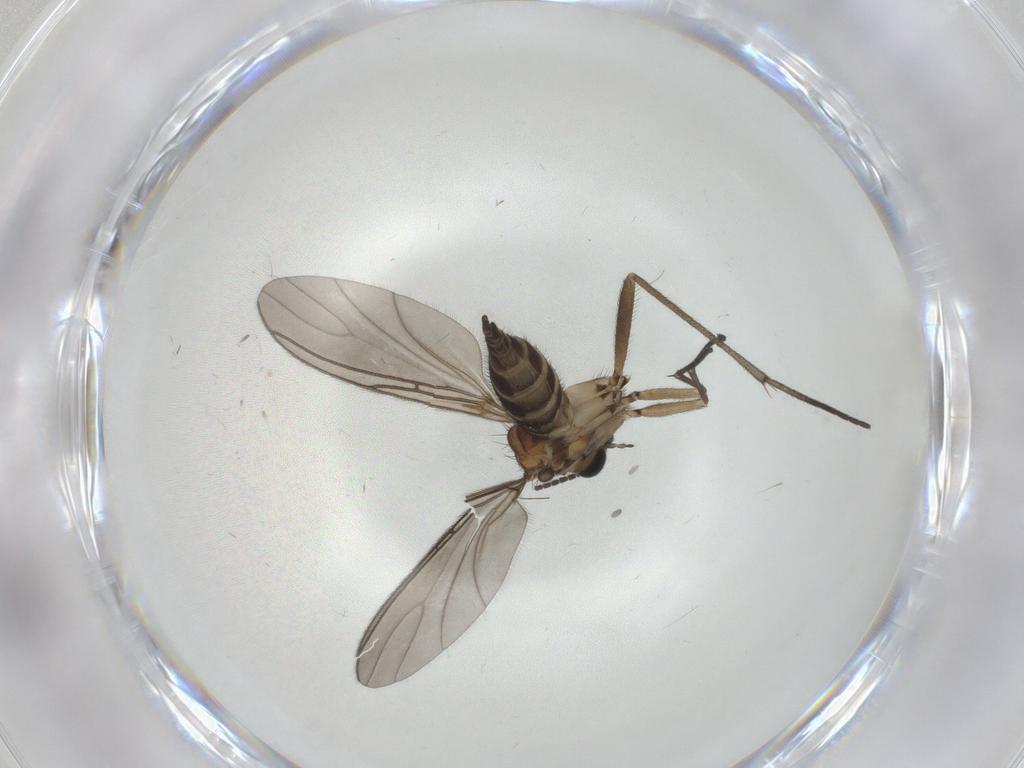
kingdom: Animalia
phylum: Arthropoda
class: Insecta
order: Diptera
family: Sciaridae
